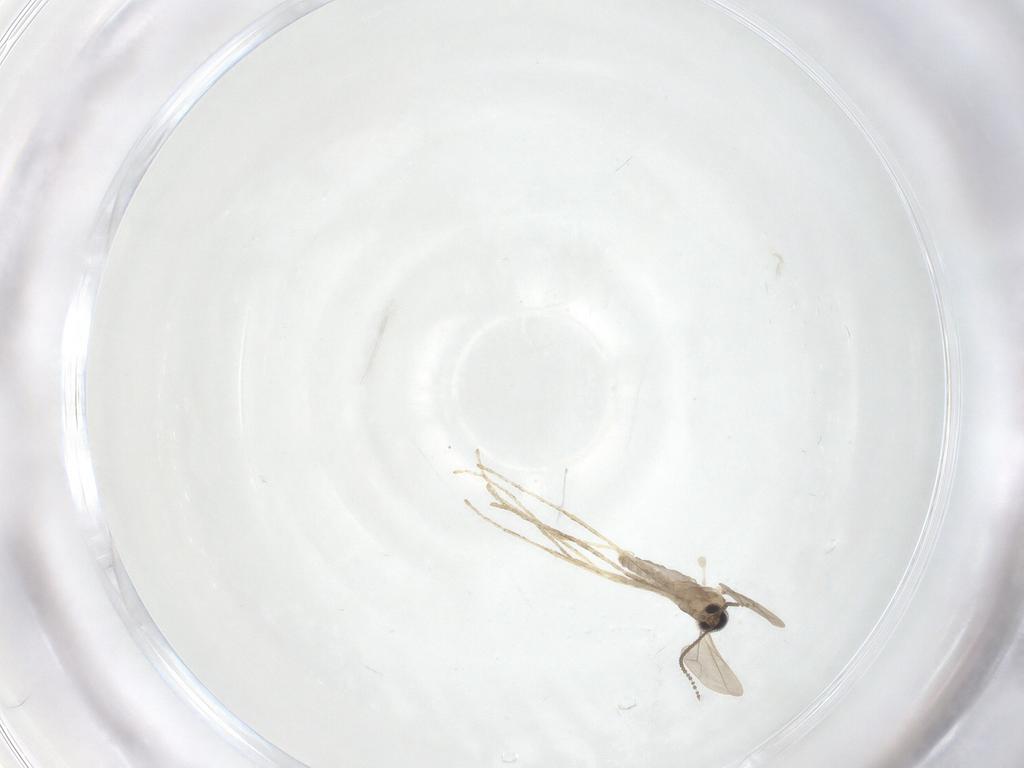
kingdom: Animalia
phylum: Arthropoda
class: Insecta
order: Diptera
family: Cecidomyiidae
